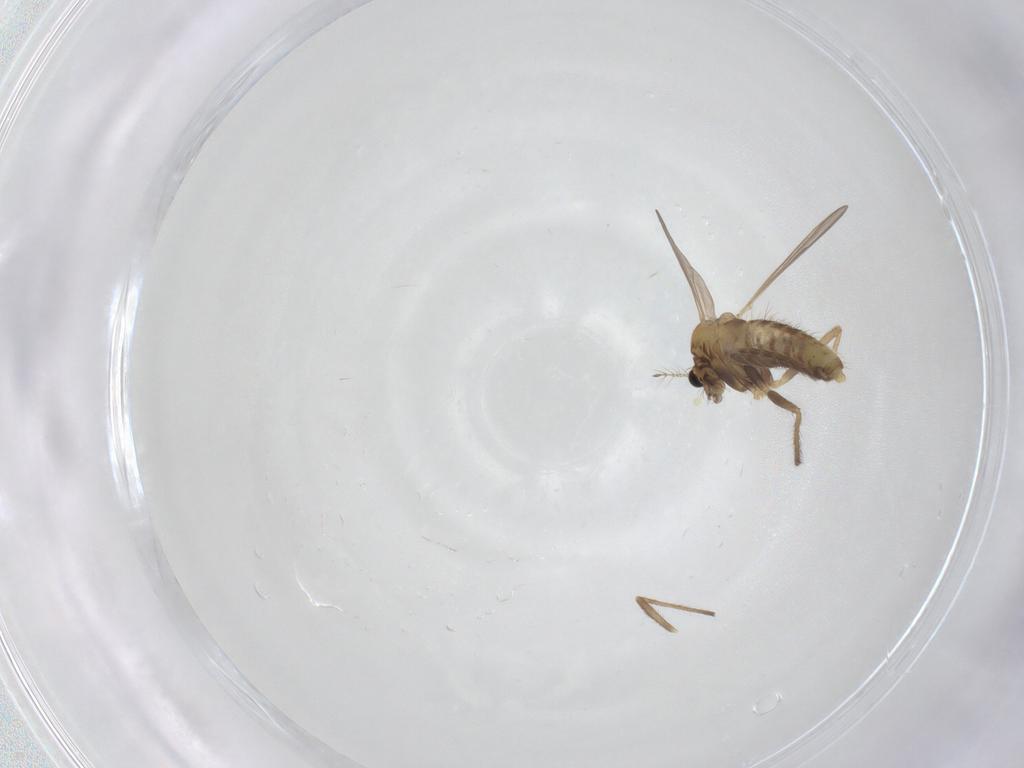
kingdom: Animalia
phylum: Arthropoda
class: Insecta
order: Diptera
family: Chironomidae
